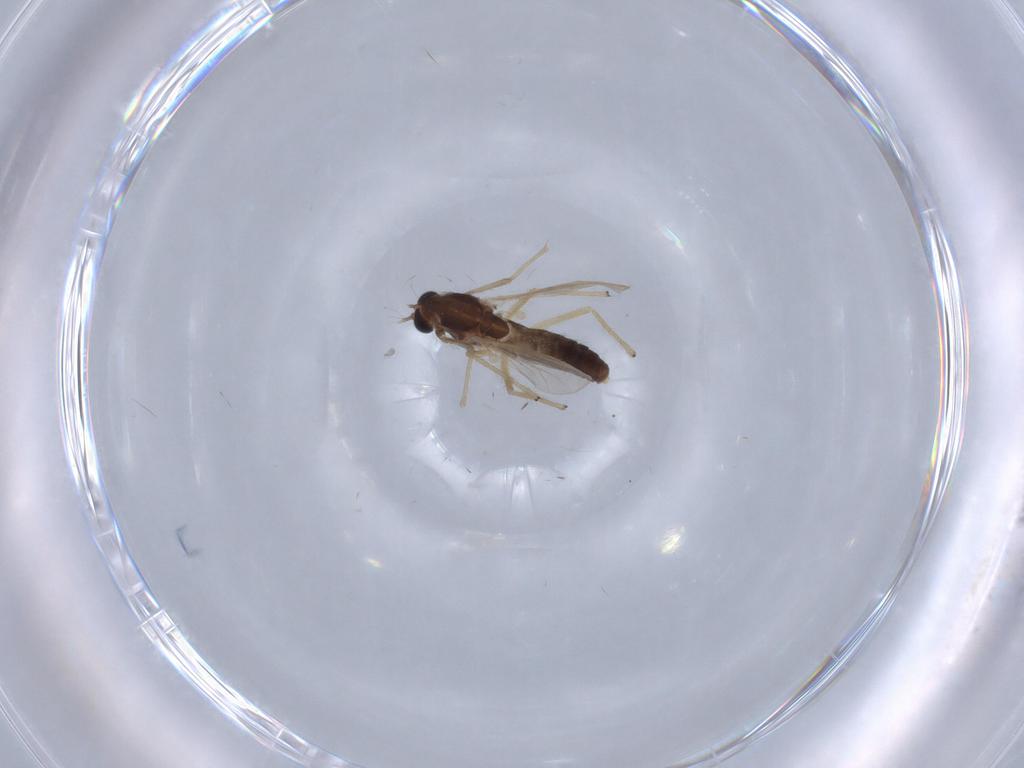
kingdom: Animalia
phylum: Arthropoda
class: Insecta
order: Diptera
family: Chironomidae
